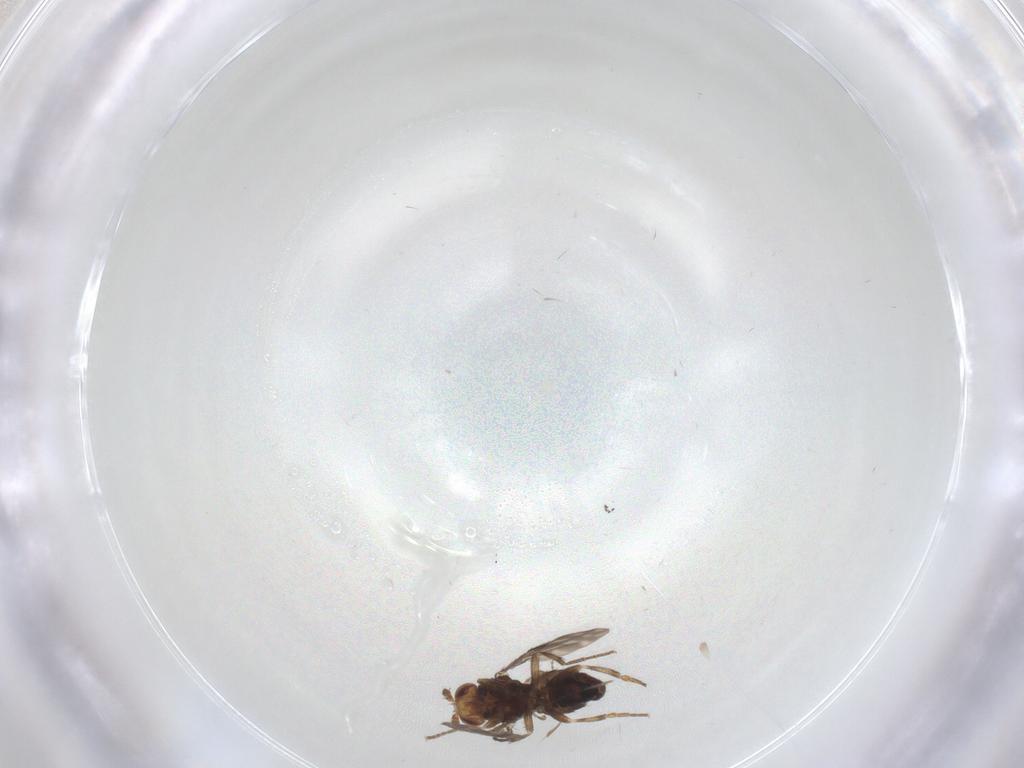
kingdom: Animalia
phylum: Arthropoda
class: Insecta
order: Diptera
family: Sphaeroceridae
